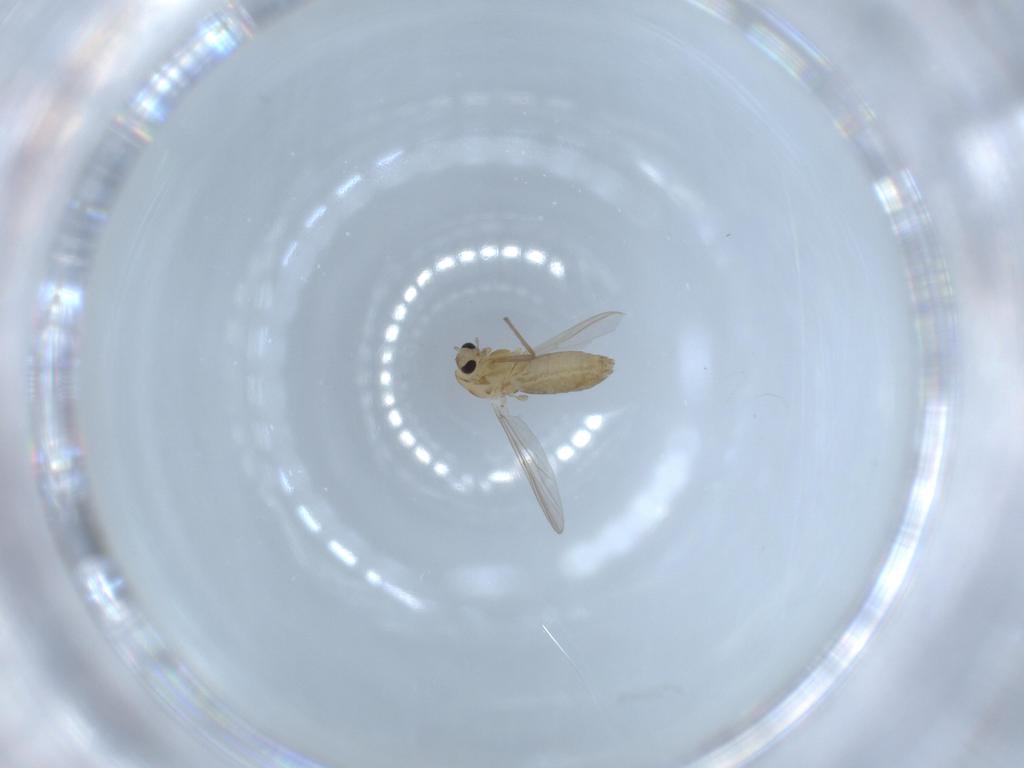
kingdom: Animalia
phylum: Arthropoda
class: Insecta
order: Diptera
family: Chironomidae
